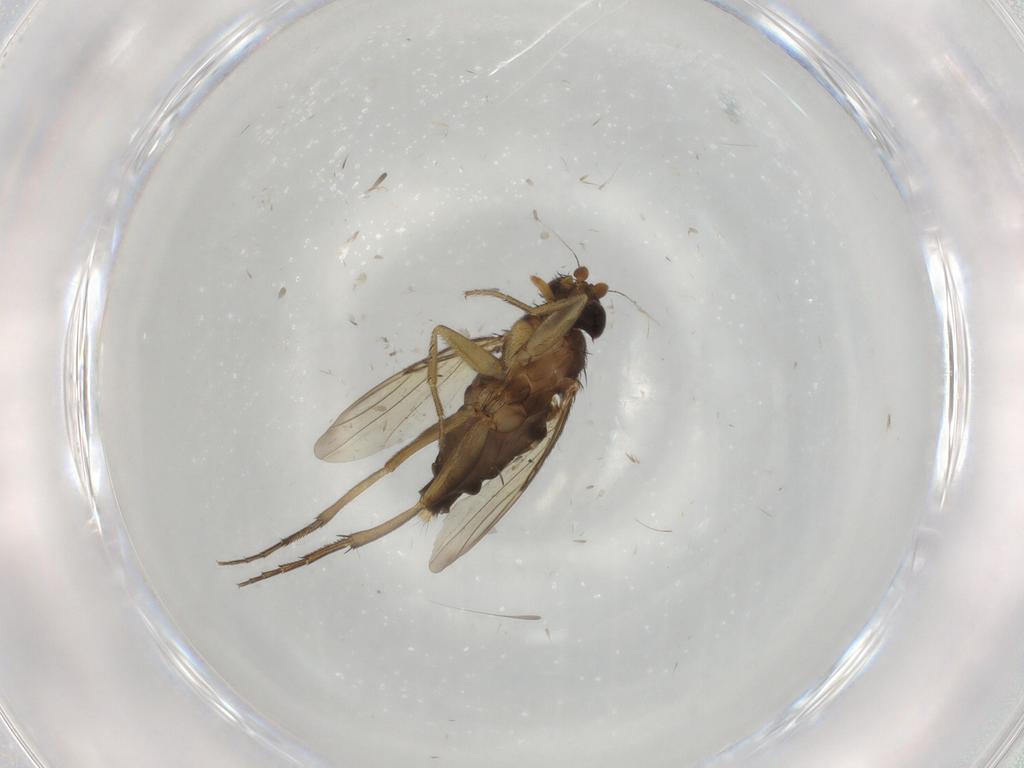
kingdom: Animalia
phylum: Arthropoda
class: Insecta
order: Diptera
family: Phoridae
